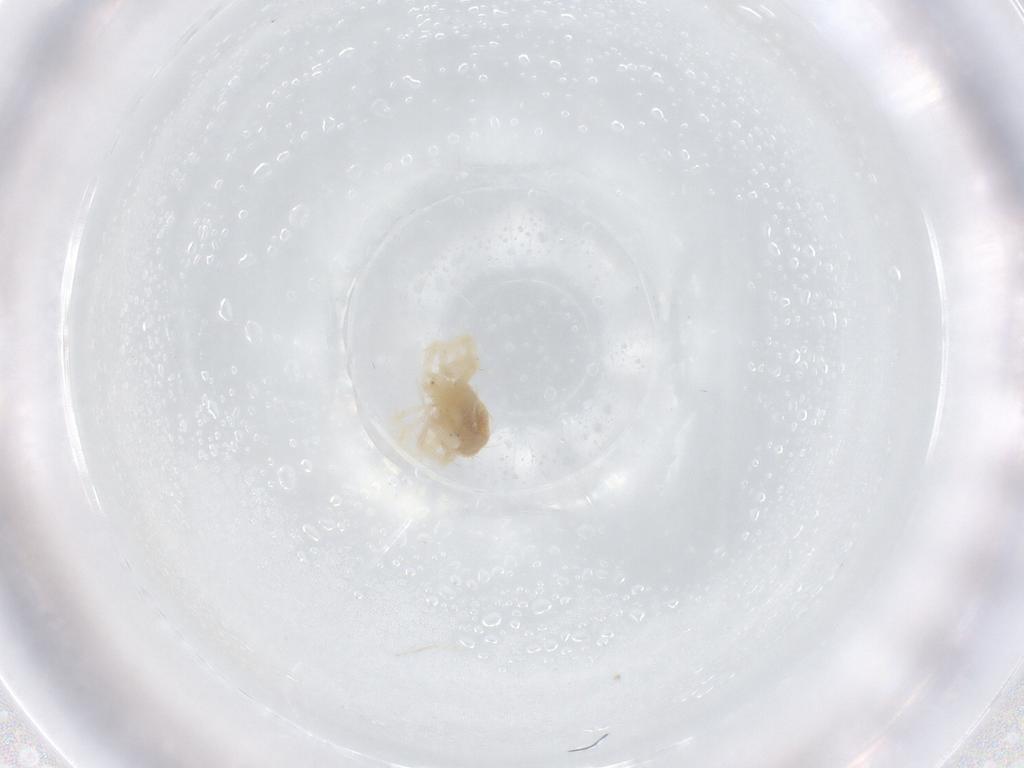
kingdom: Animalia
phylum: Arthropoda
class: Arachnida
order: Trombidiformes
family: Anystidae
